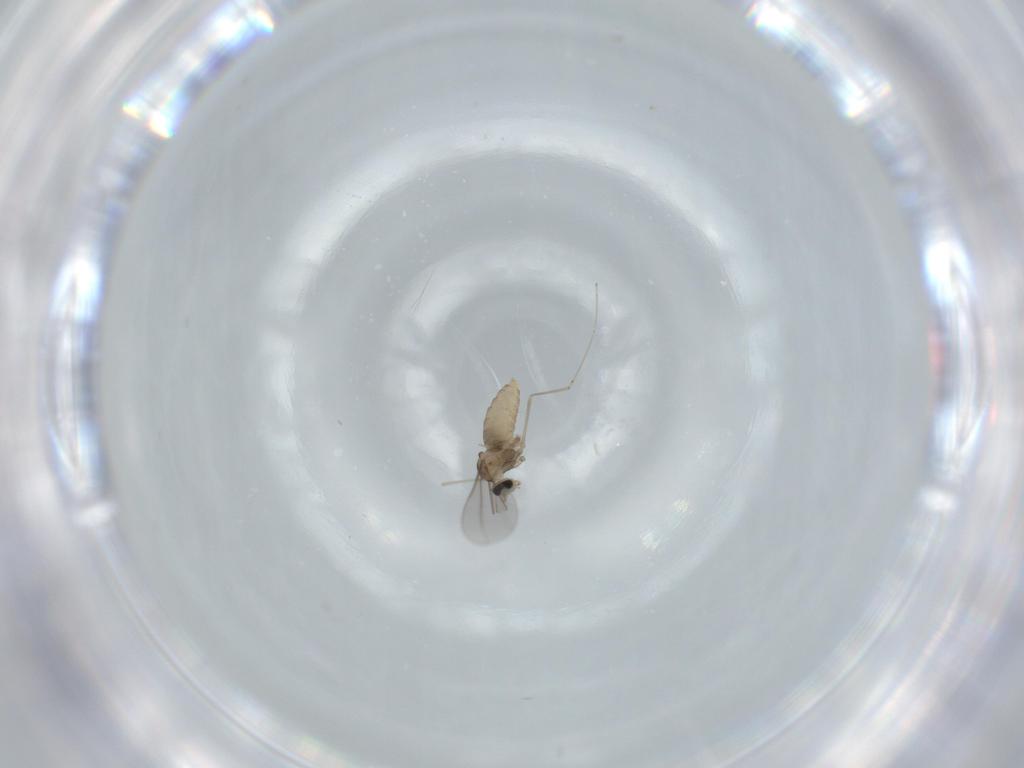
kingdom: Animalia
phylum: Arthropoda
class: Insecta
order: Diptera
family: Cecidomyiidae
